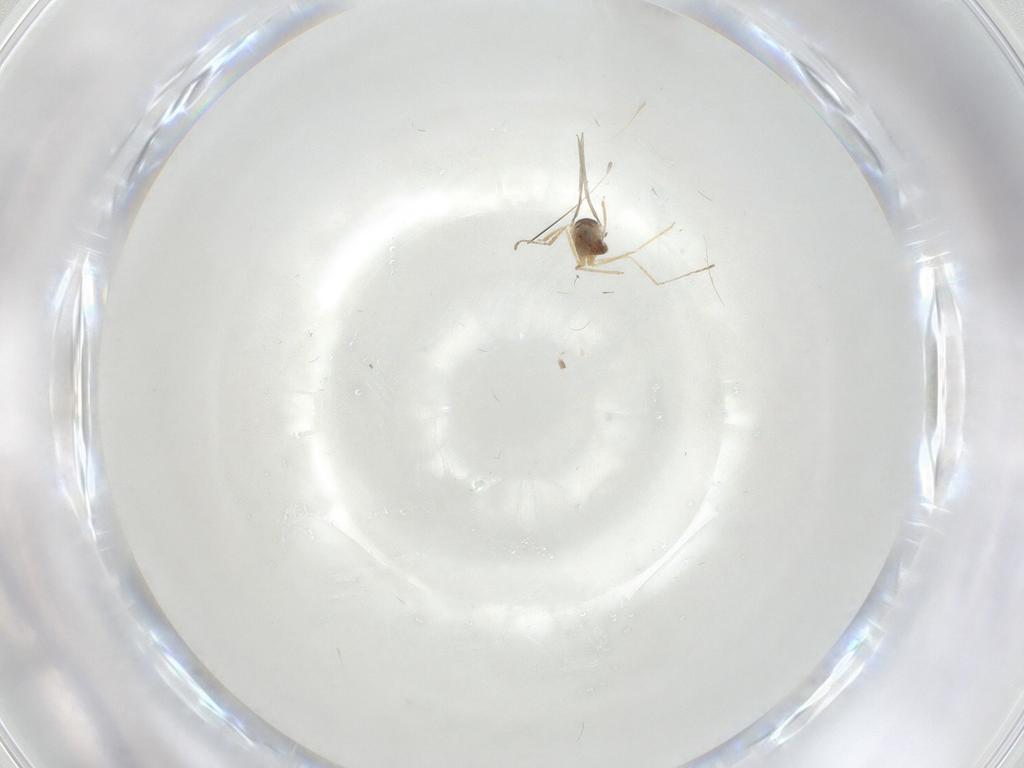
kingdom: Animalia
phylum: Arthropoda
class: Insecta
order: Diptera
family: Cecidomyiidae
